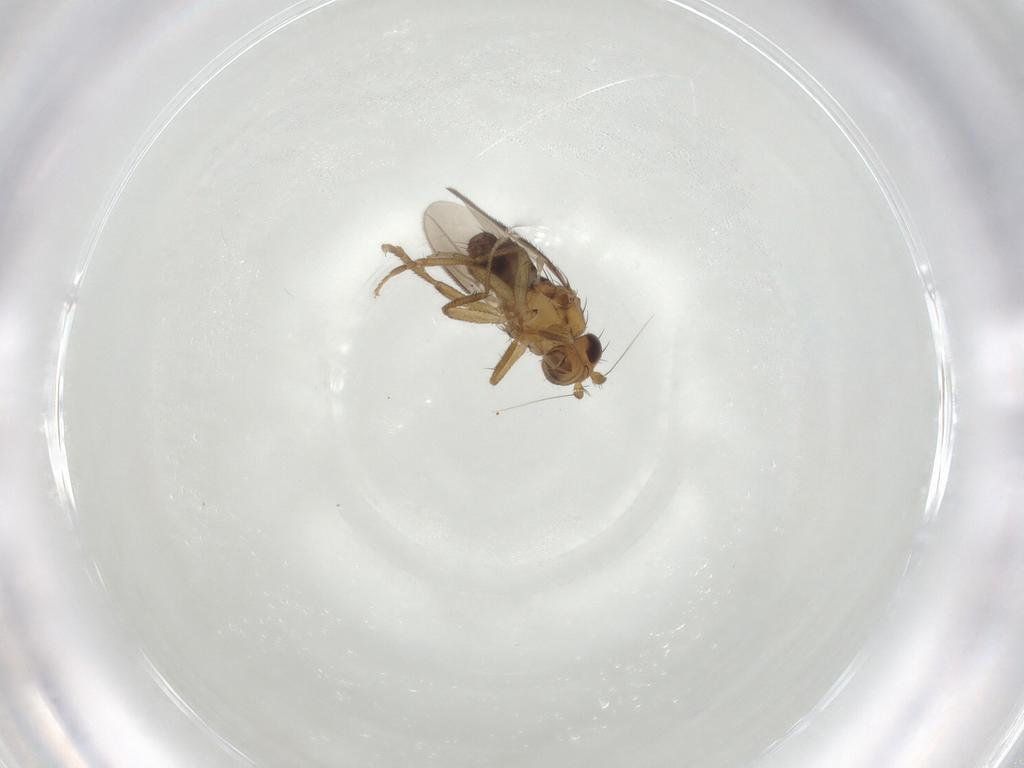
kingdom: Animalia
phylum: Arthropoda
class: Insecta
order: Diptera
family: Sphaeroceridae
